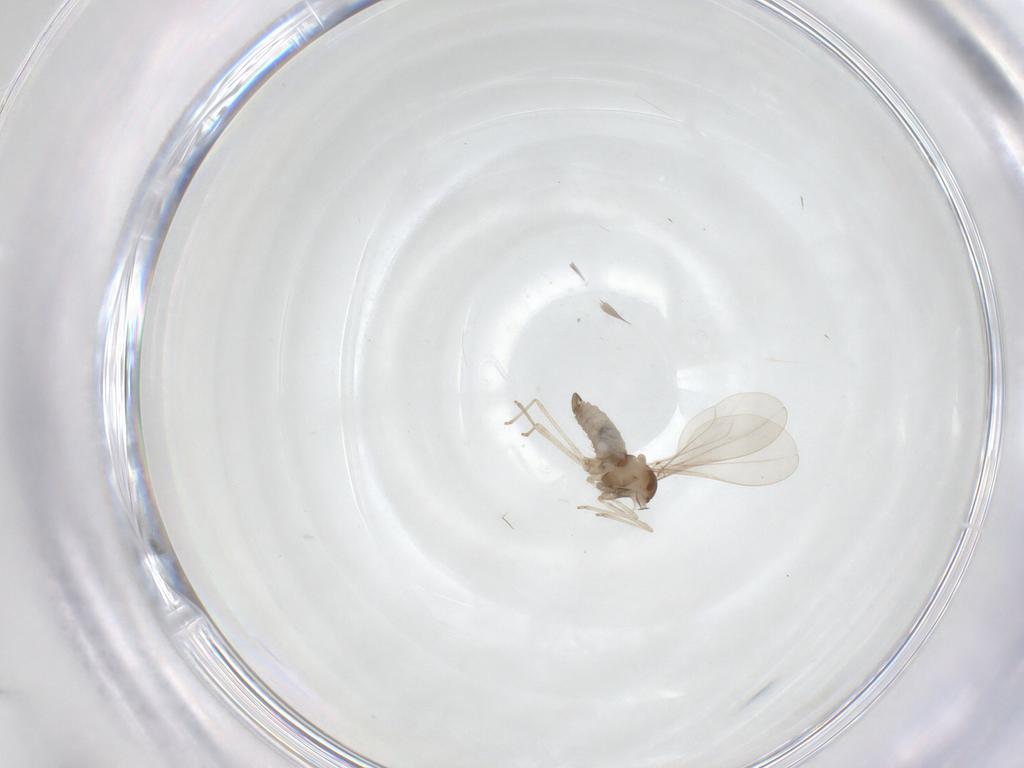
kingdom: Animalia
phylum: Arthropoda
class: Insecta
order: Diptera
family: Cecidomyiidae
